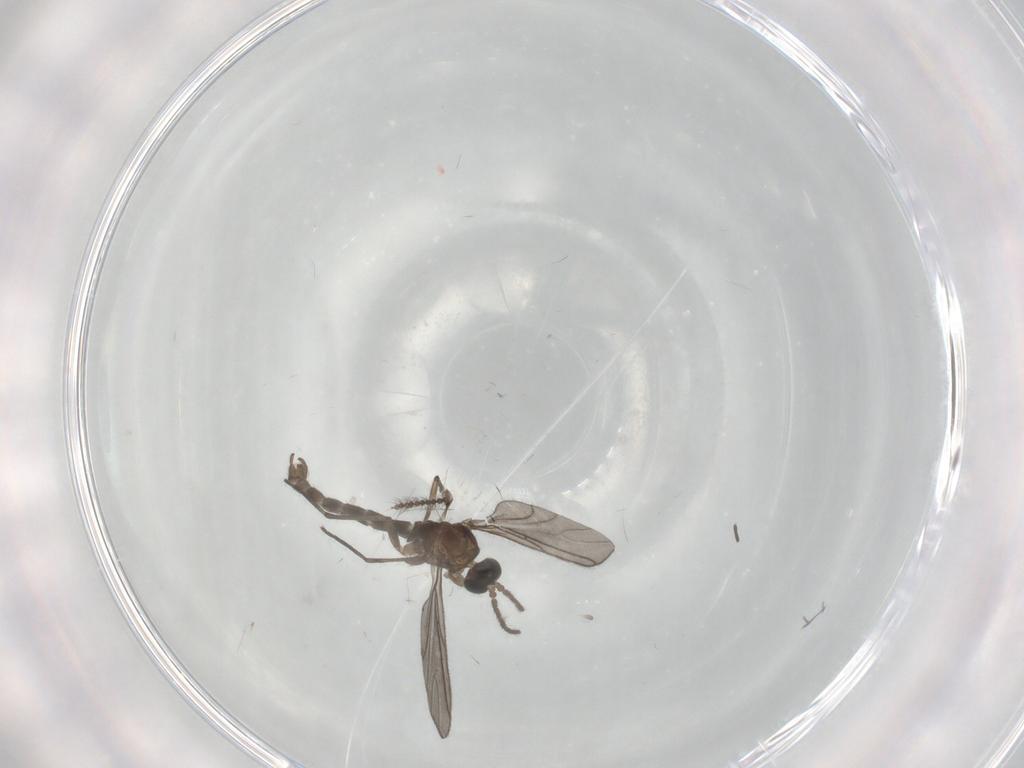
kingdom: Animalia
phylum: Arthropoda
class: Insecta
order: Diptera
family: Sciaridae
